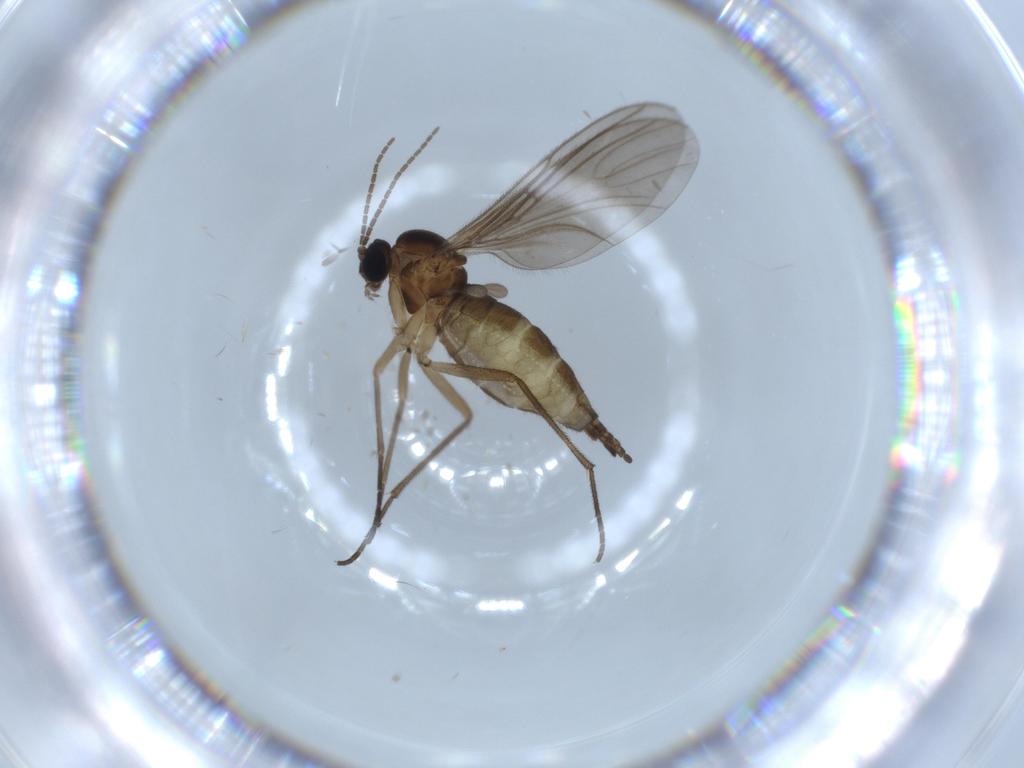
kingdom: Animalia
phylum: Arthropoda
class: Insecta
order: Diptera
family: Sciaridae
